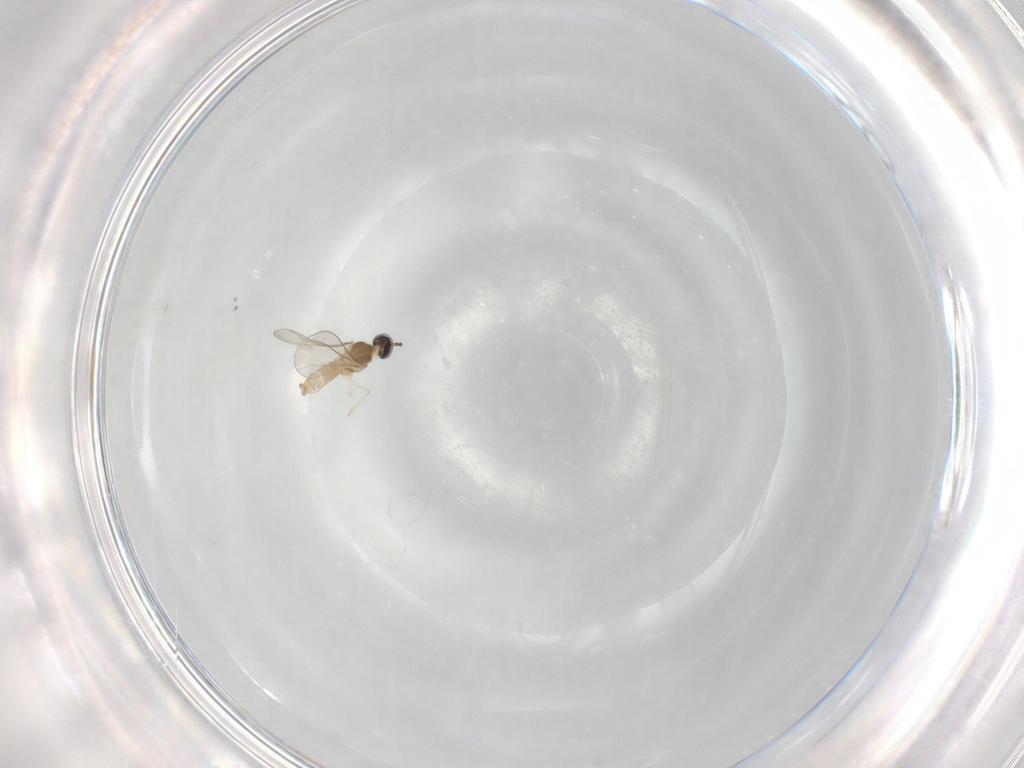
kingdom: Animalia
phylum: Arthropoda
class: Insecta
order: Diptera
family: Cecidomyiidae
